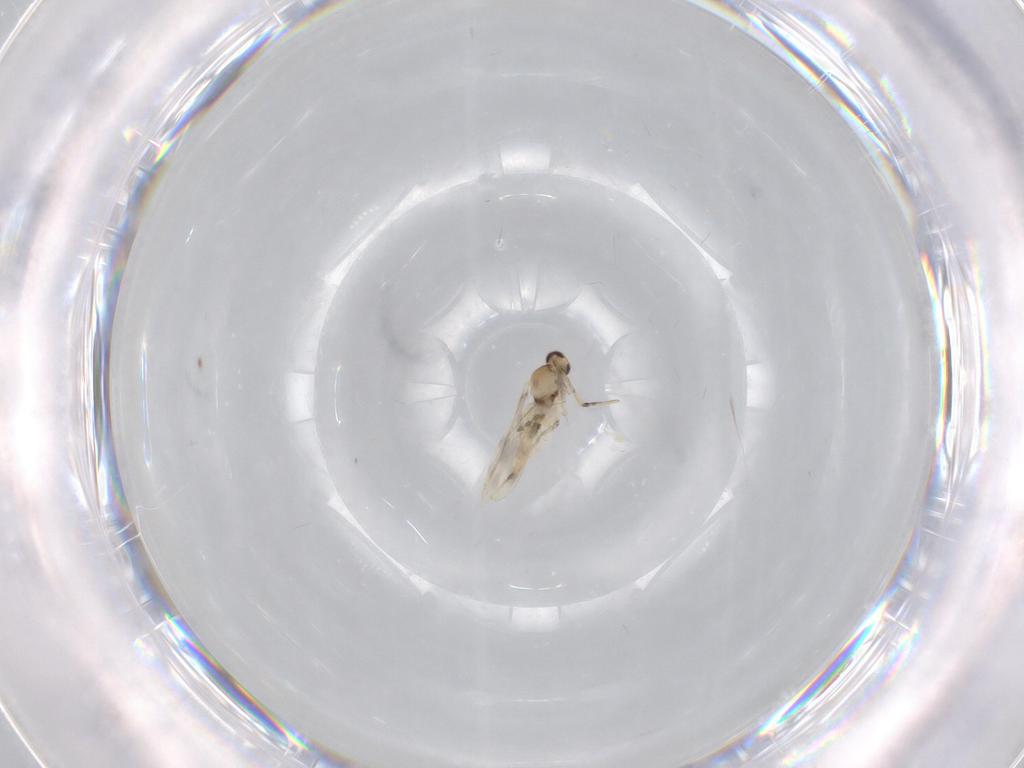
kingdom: Animalia
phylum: Arthropoda
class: Insecta
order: Diptera
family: Cecidomyiidae
